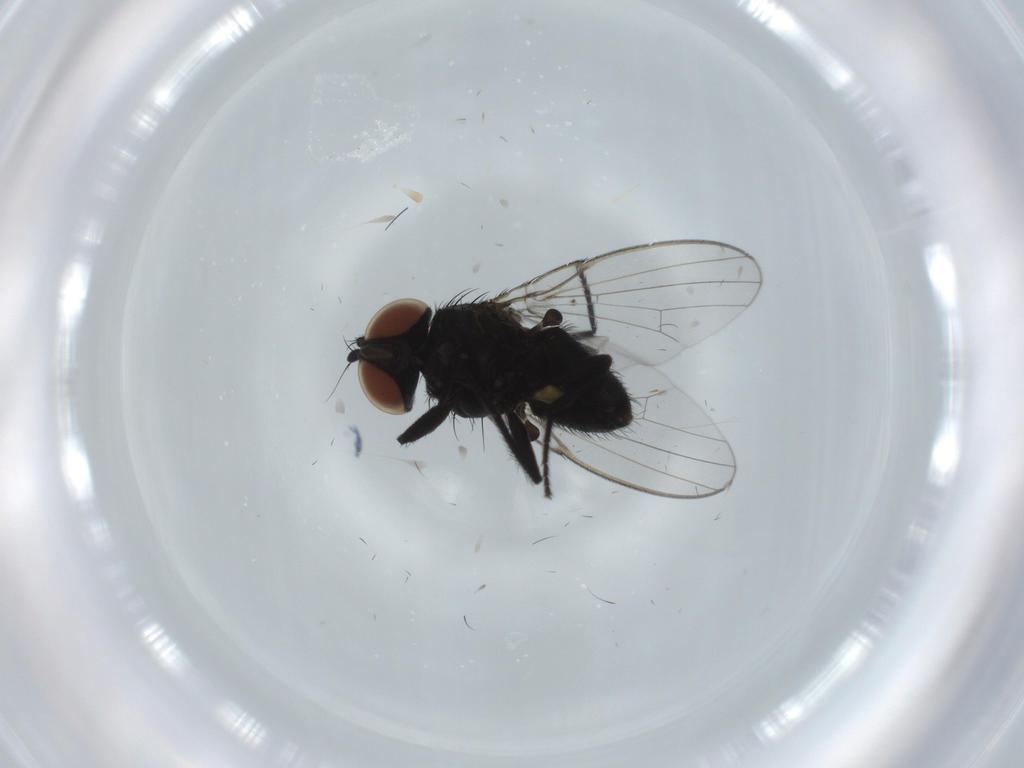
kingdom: Animalia
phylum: Arthropoda
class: Insecta
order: Diptera
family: Milichiidae
